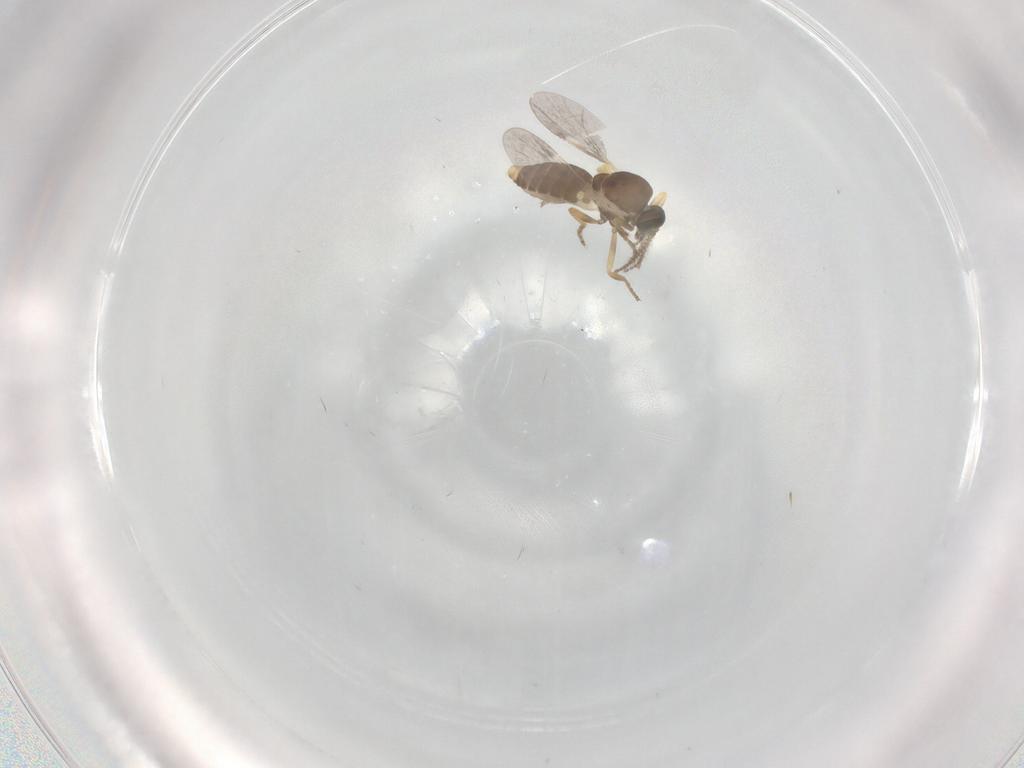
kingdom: Animalia
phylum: Arthropoda
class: Insecta
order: Diptera
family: Ceratopogonidae
